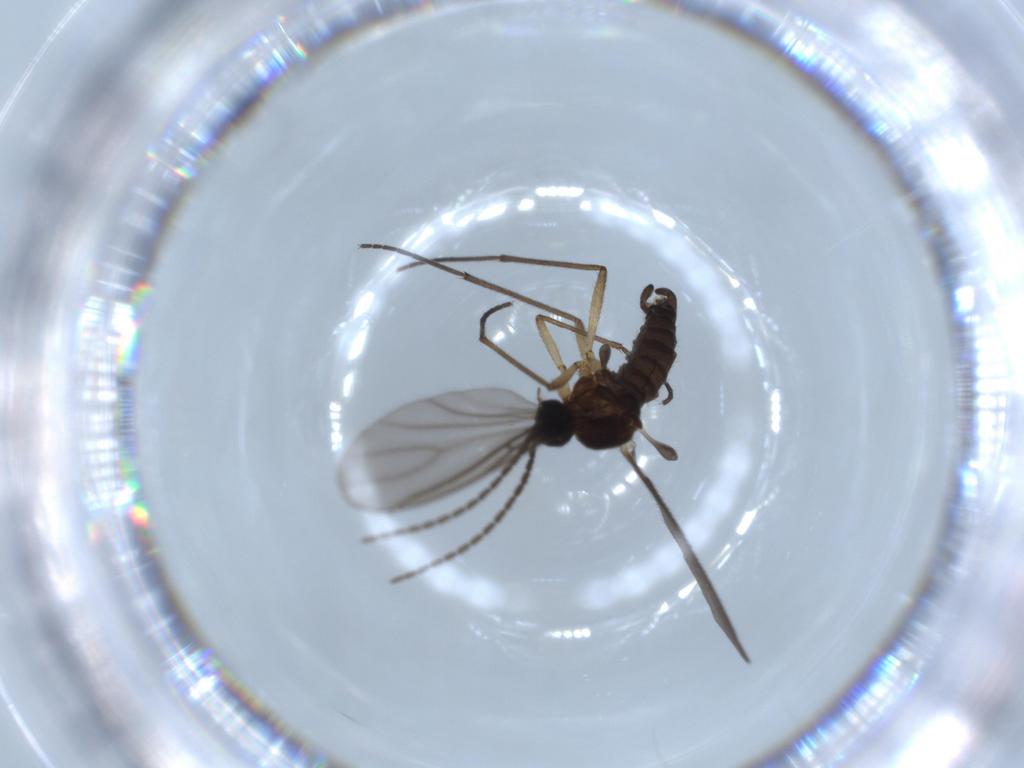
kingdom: Animalia
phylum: Arthropoda
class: Insecta
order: Diptera
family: Sciaridae
